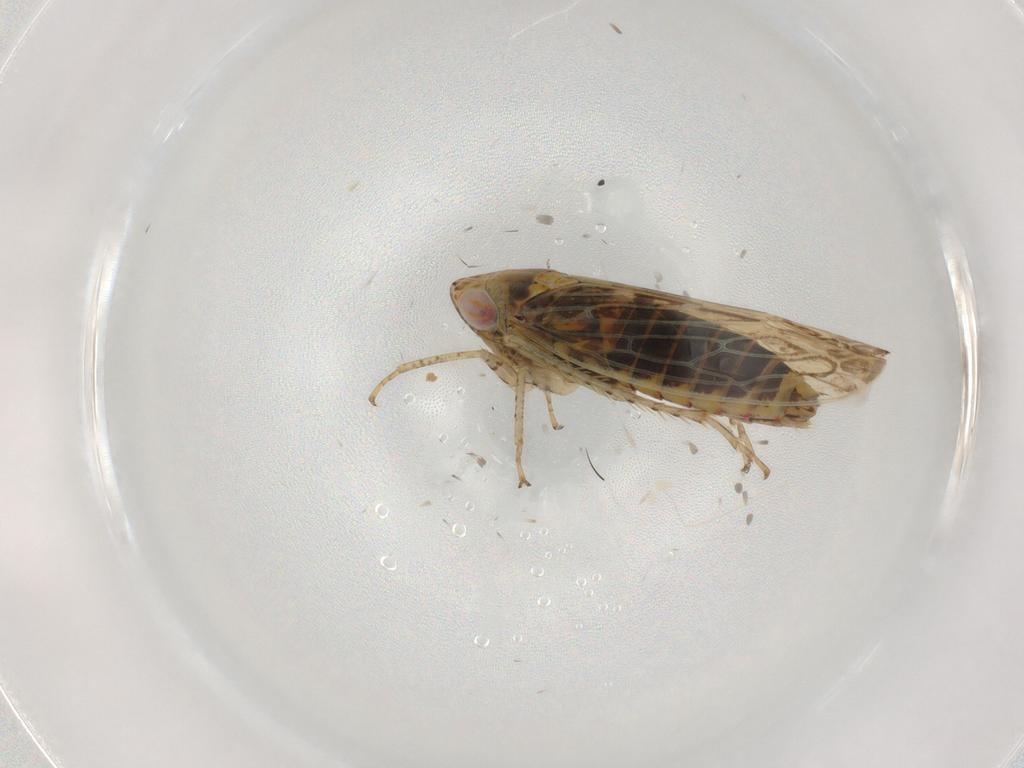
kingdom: Animalia
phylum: Arthropoda
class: Insecta
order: Hemiptera
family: Cicadellidae
